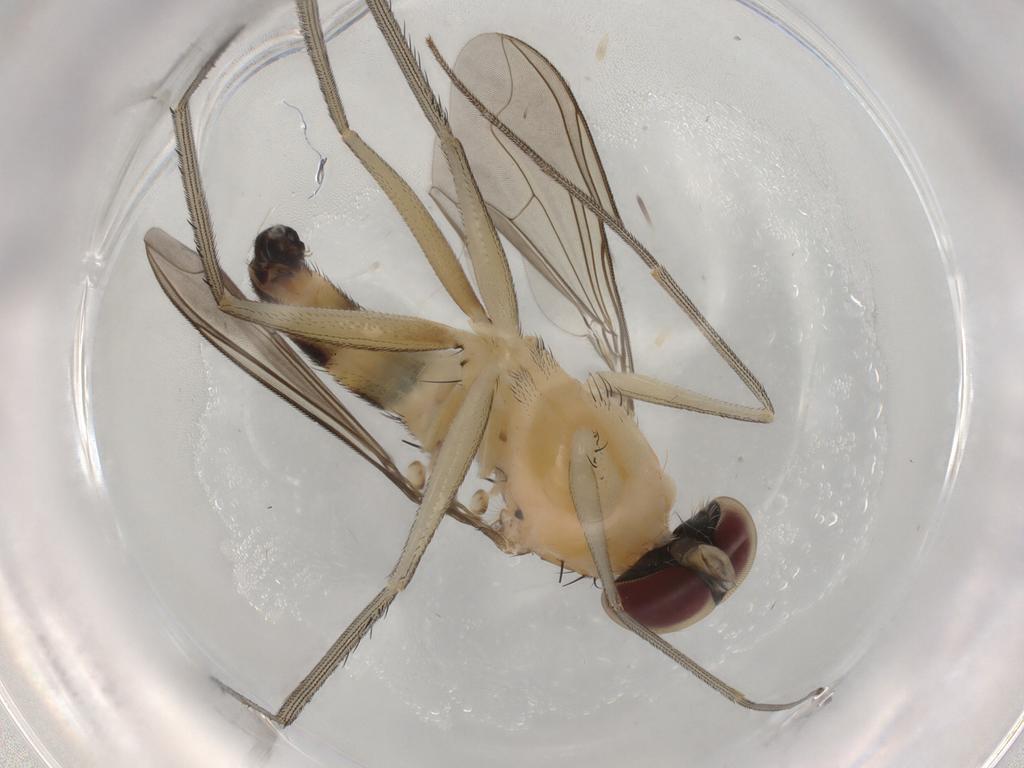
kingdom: Animalia
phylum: Arthropoda
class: Insecta
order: Diptera
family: Dolichopodidae
